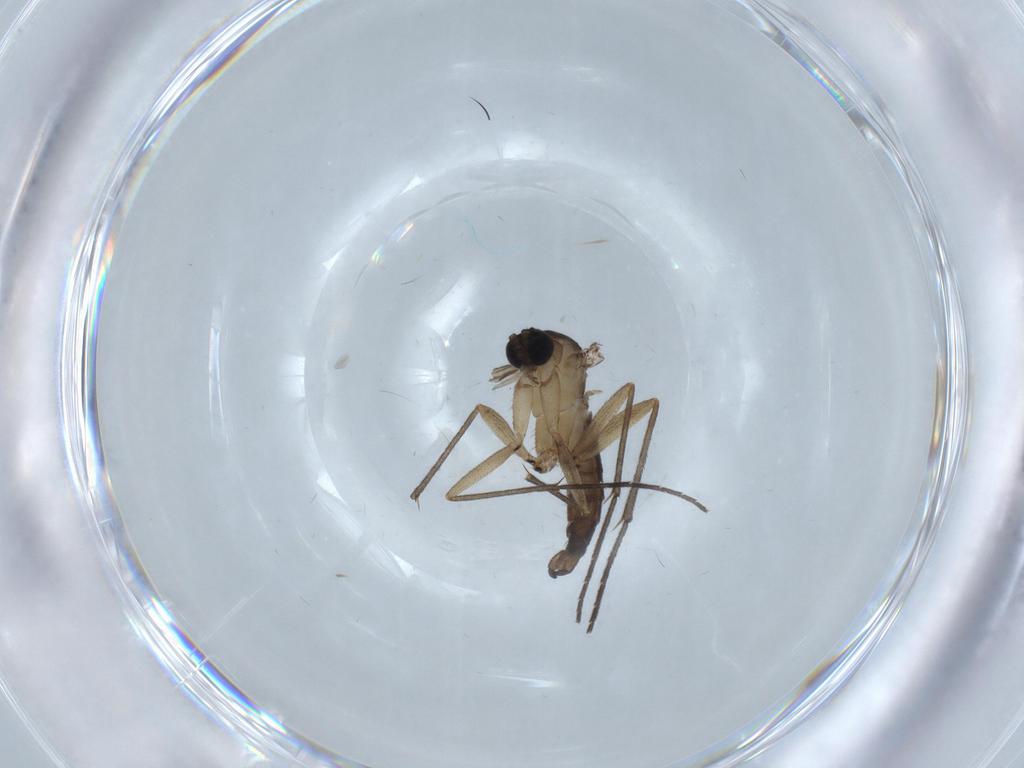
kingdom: Animalia
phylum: Arthropoda
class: Insecta
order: Diptera
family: Sciaridae
